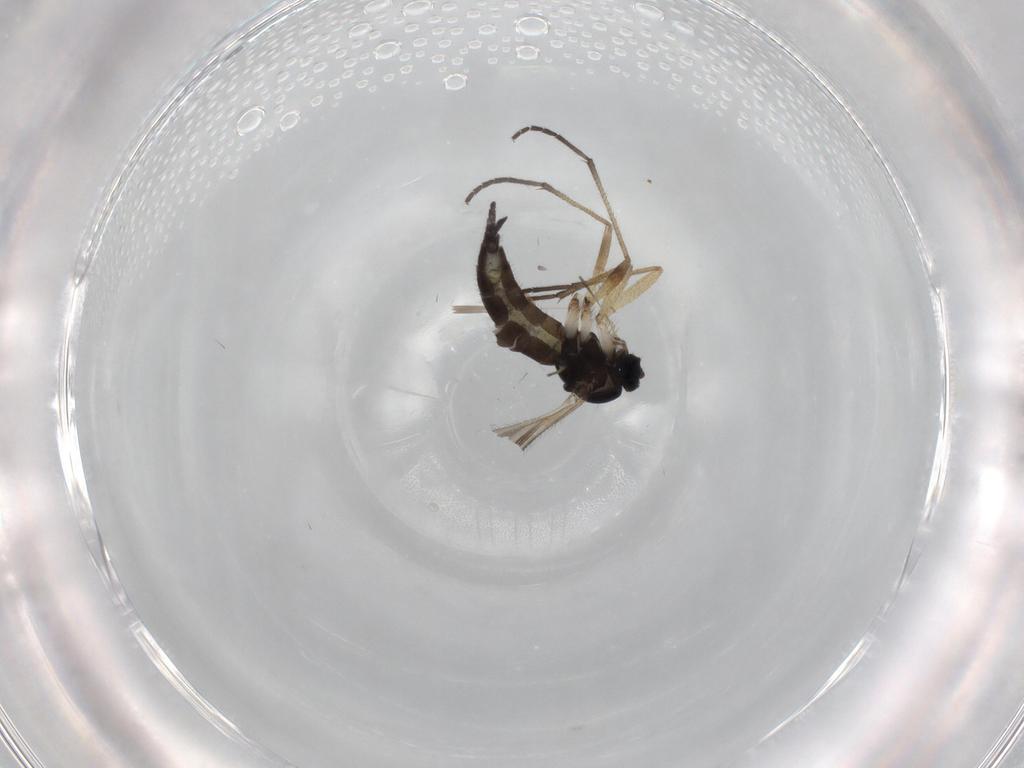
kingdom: Animalia
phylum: Arthropoda
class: Insecta
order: Diptera
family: Sciaridae
